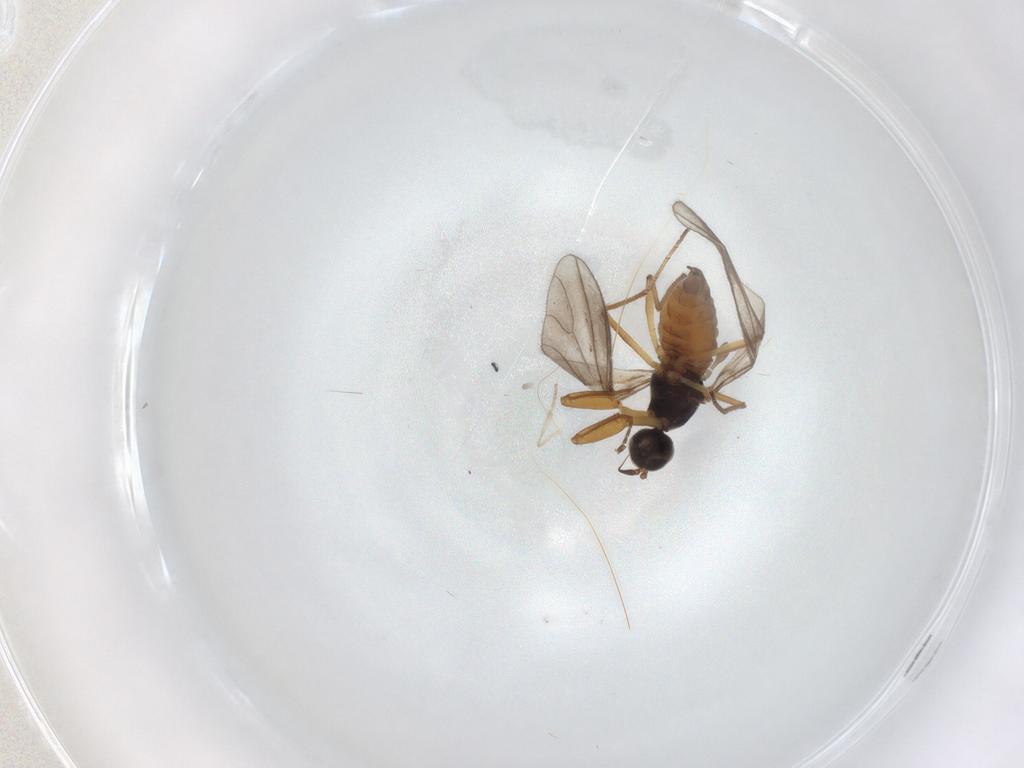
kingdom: Animalia
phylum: Arthropoda
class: Insecta
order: Diptera
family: Empididae
